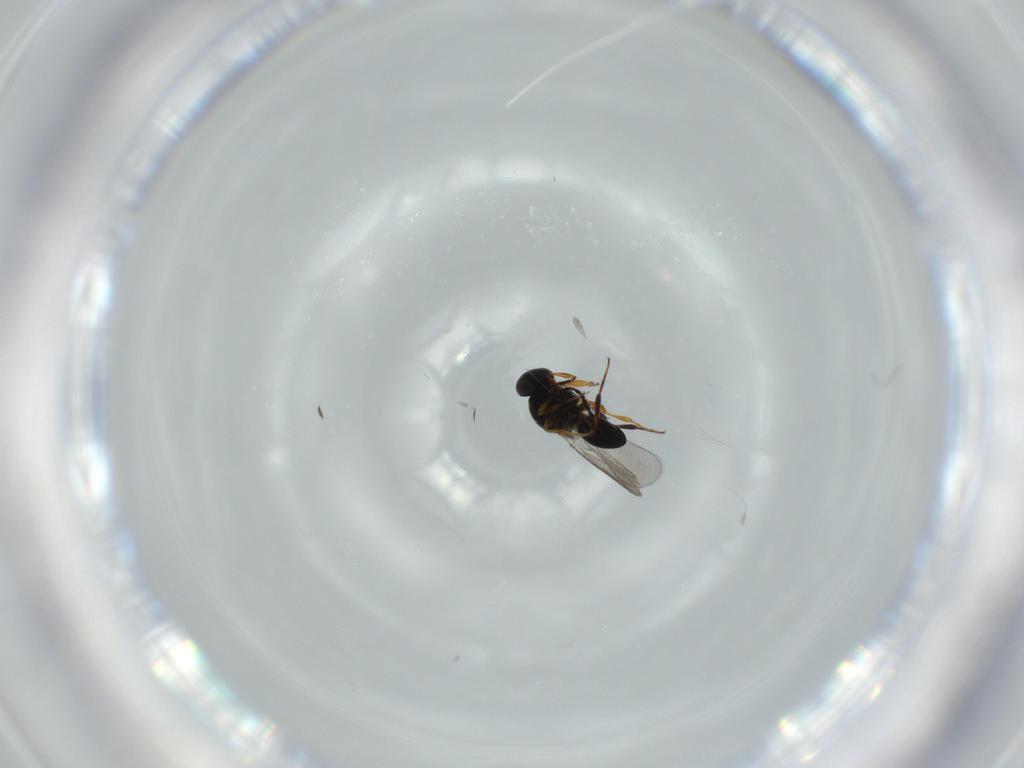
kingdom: Animalia
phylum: Arthropoda
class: Insecta
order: Hymenoptera
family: Platygastridae
